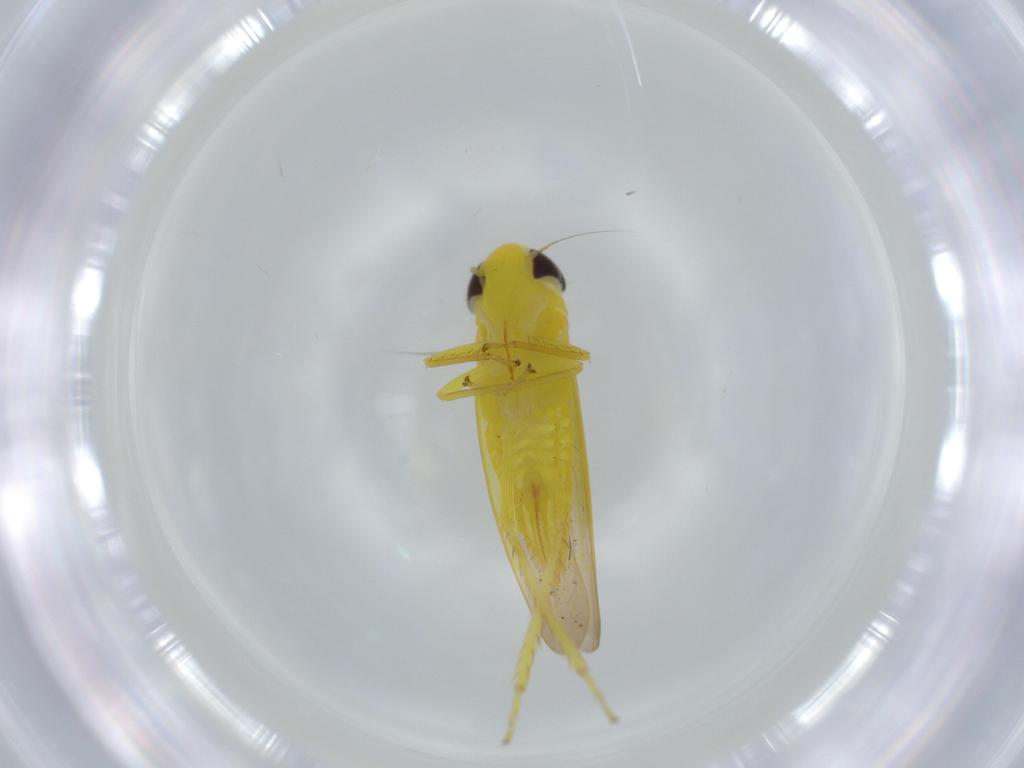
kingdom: Animalia
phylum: Arthropoda
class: Insecta
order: Hemiptera
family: Cicadellidae
